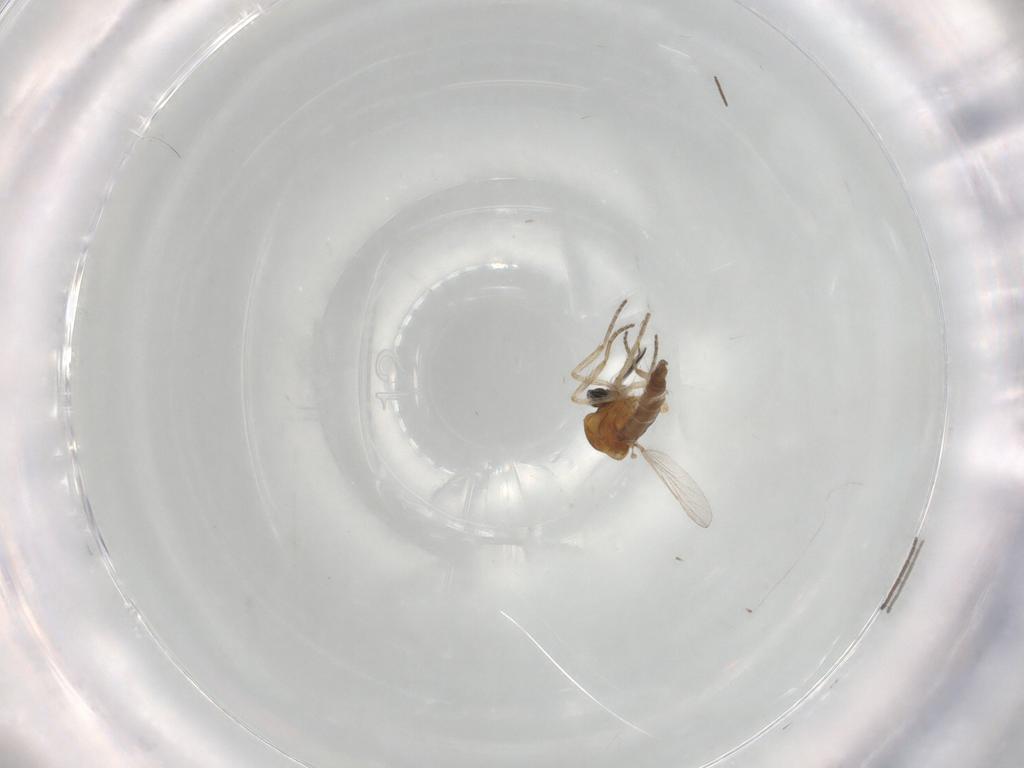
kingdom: Animalia
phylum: Arthropoda
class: Insecta
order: Diptera
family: Ceratopogonidae
